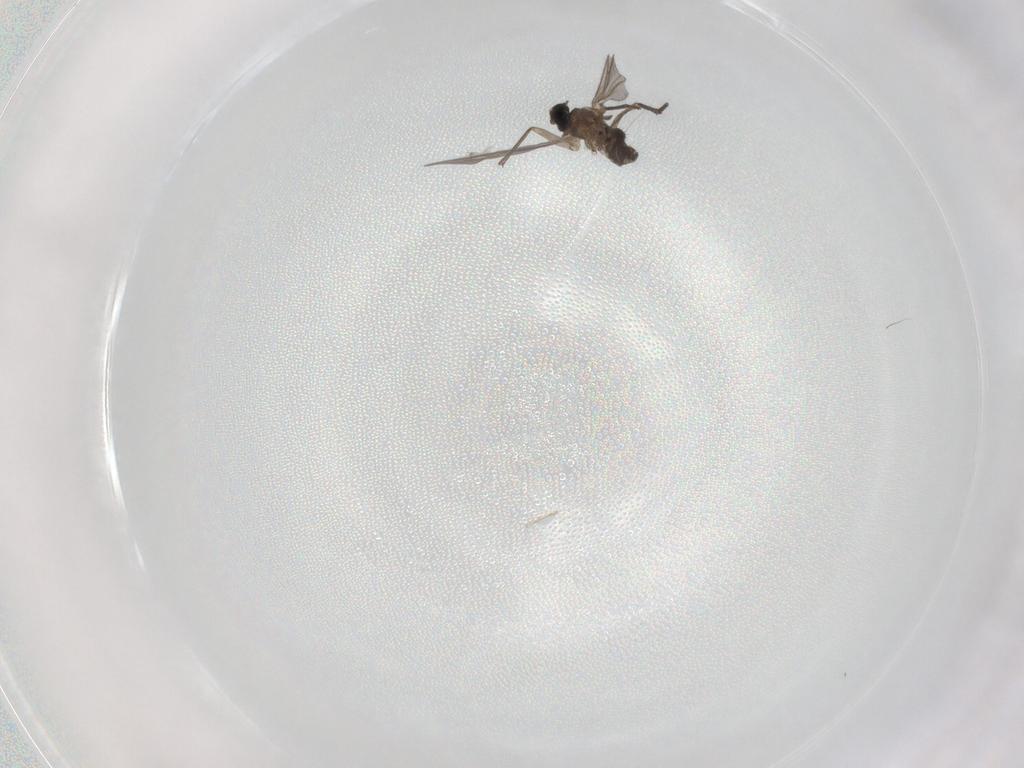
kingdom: Animalia
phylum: Arthropoda
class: Insecta
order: Diptera
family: Sciaridae
